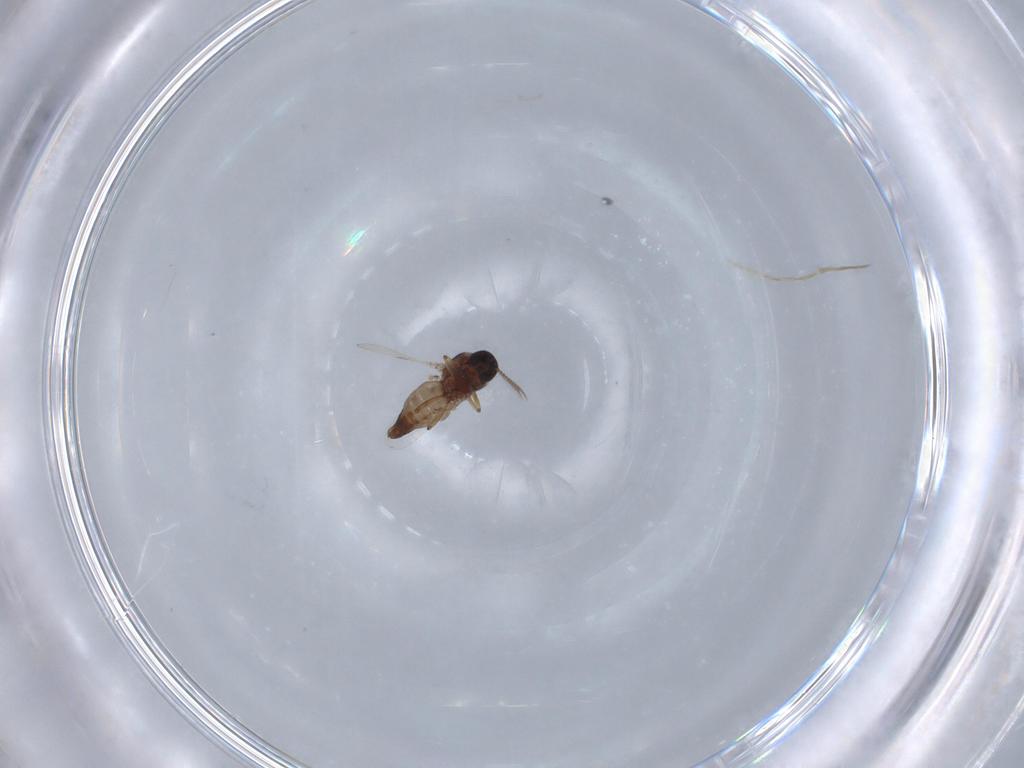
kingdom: Animalia
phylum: Arthropoda
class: Insecta
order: Diptera
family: Ceratopogonidae
